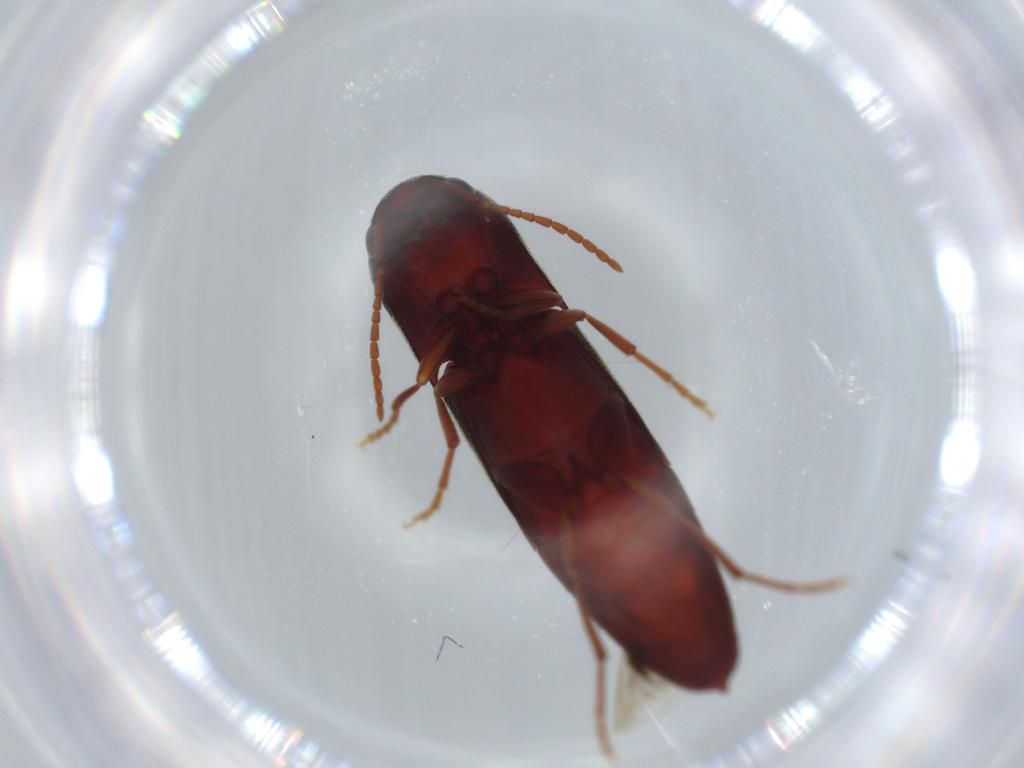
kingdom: Animalia
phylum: Arthropoda
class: Insecta
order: Coleoptera
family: Eucnemidae
